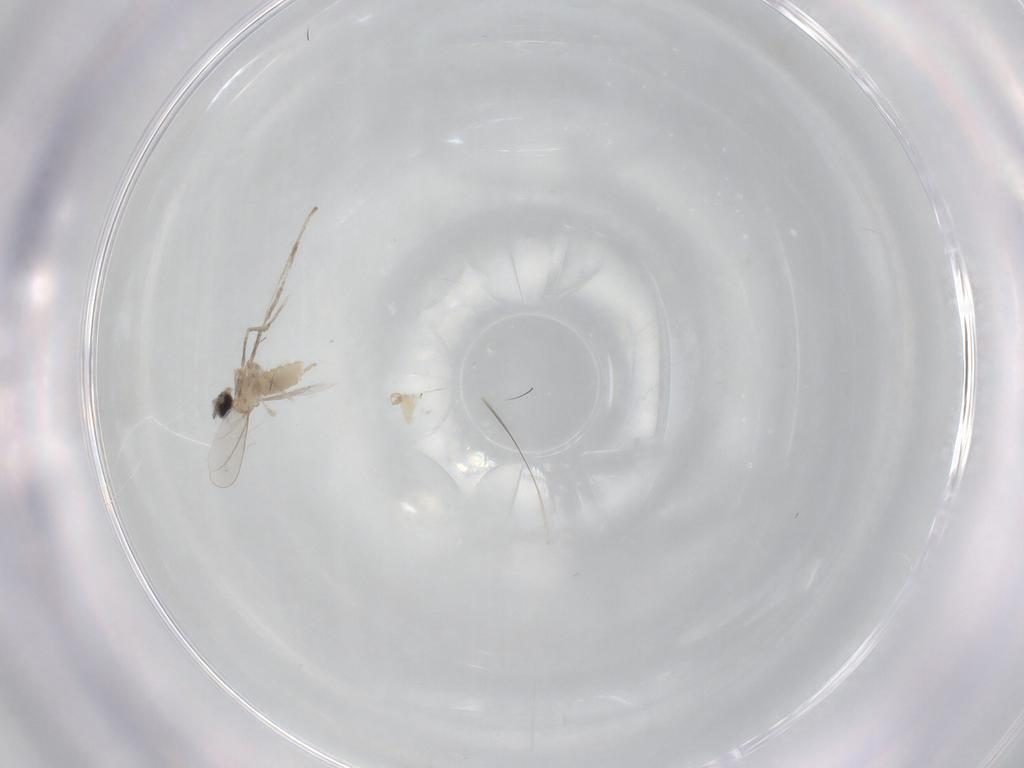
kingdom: Animalia
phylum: Arthropoda
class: Insecta
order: Diptera
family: Cecidomyiidae
